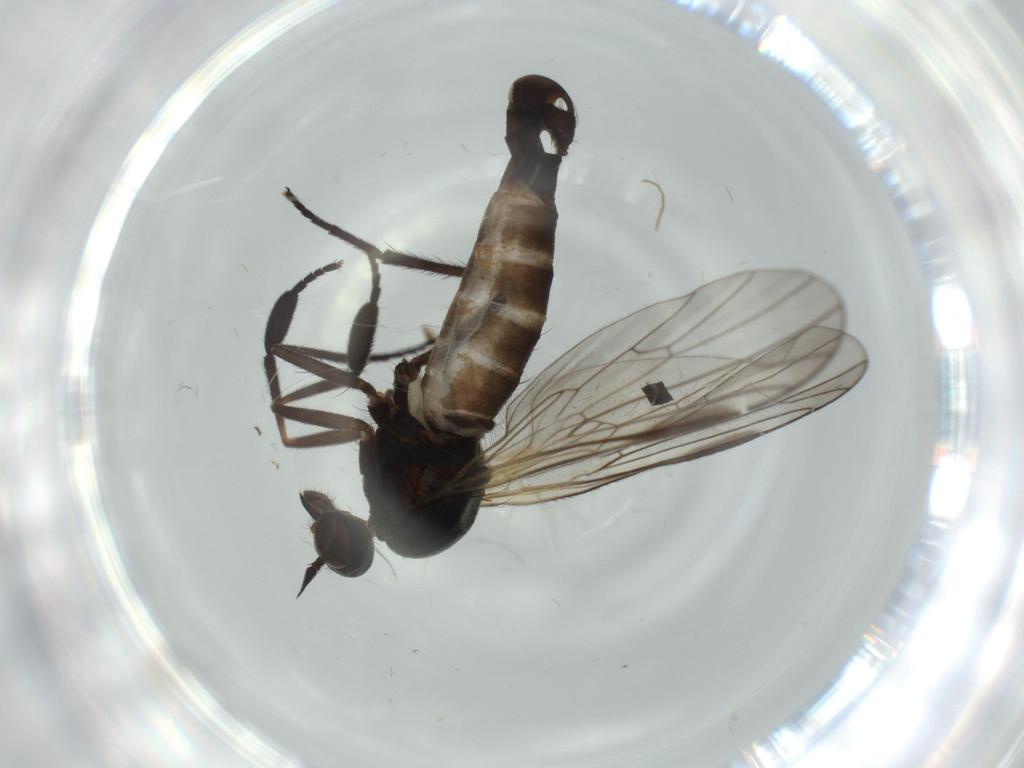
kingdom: Animalia
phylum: Arthropoda
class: Insecta
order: Diptera
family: Empididae
